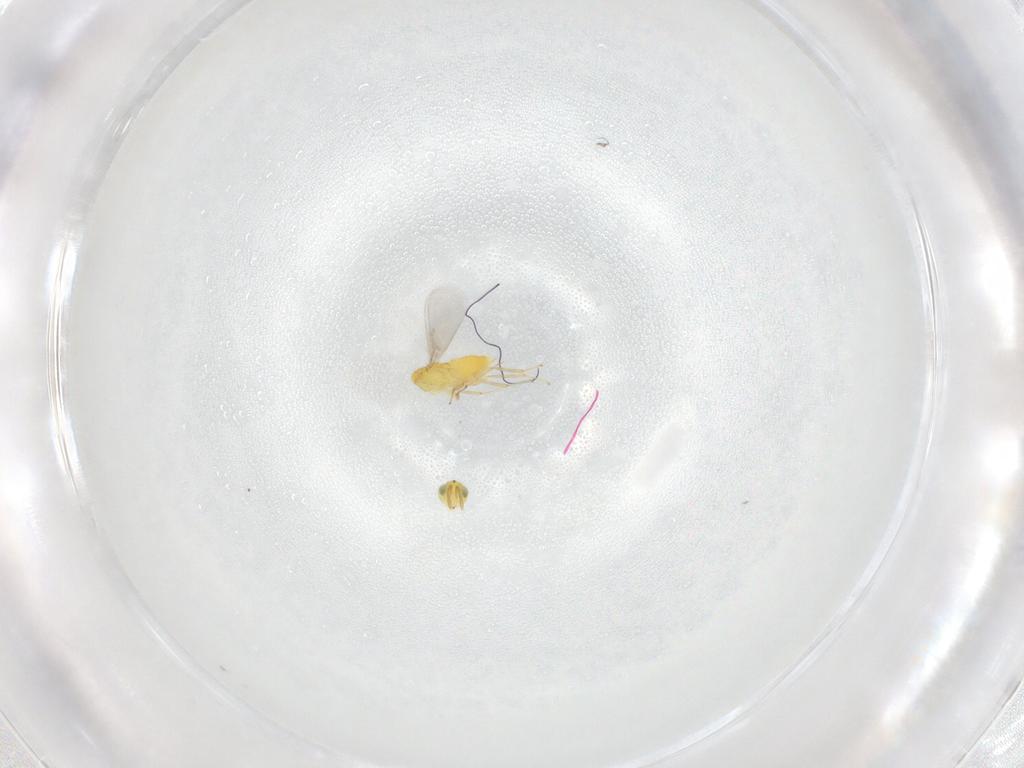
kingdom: Animalia
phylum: Arthropoda
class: Insecta
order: Hymenoptera
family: Aphelinidae
